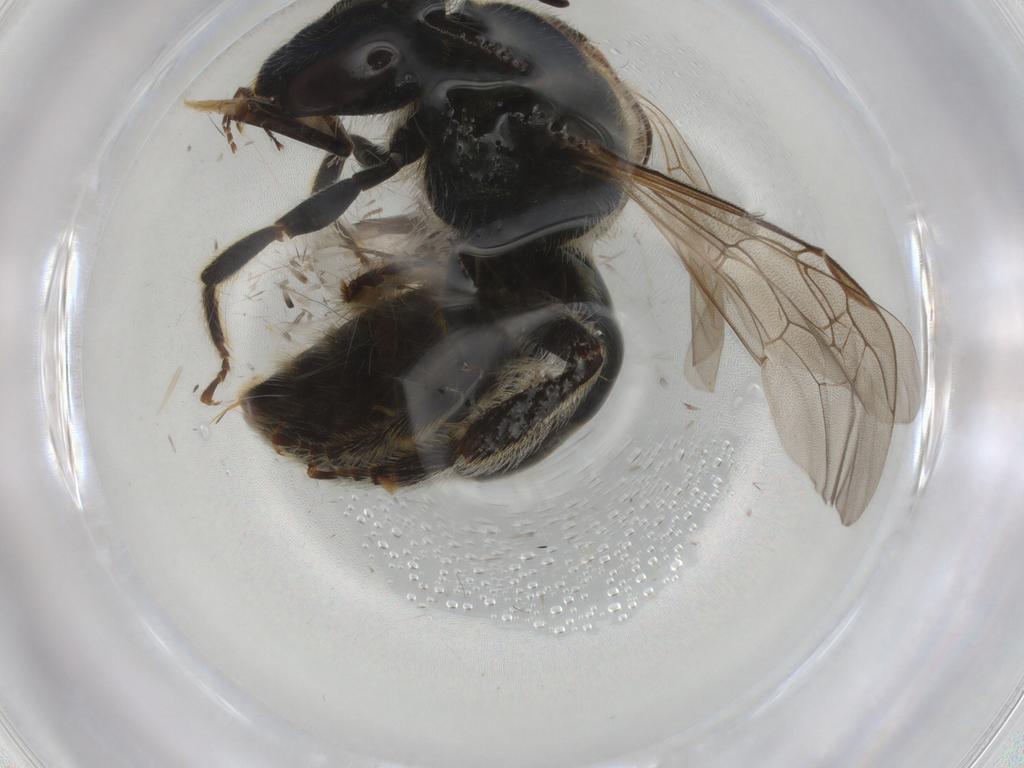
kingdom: Animalia
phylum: Arthropoda
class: Insecta
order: Hymenoptera
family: Halictidae
